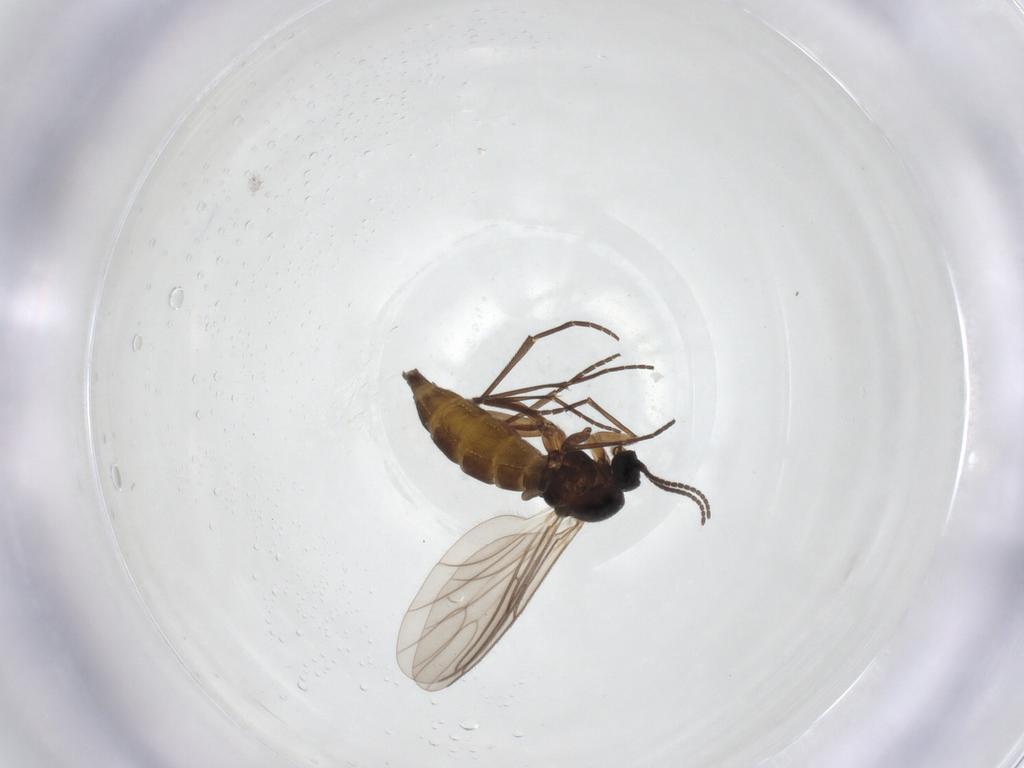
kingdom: Animalia
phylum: Arthropoda
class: Insecta
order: Diptera
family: Sciaridae
